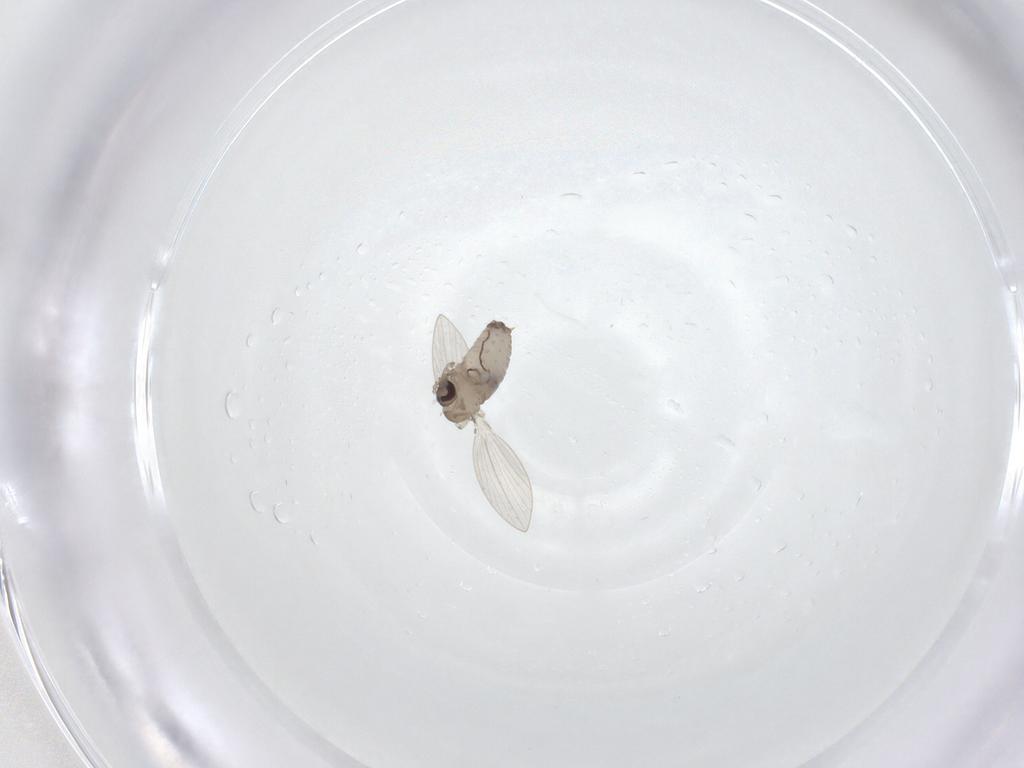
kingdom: Animalia
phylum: Arthropoda
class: Insecta
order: Diptera
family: Psychodidae
